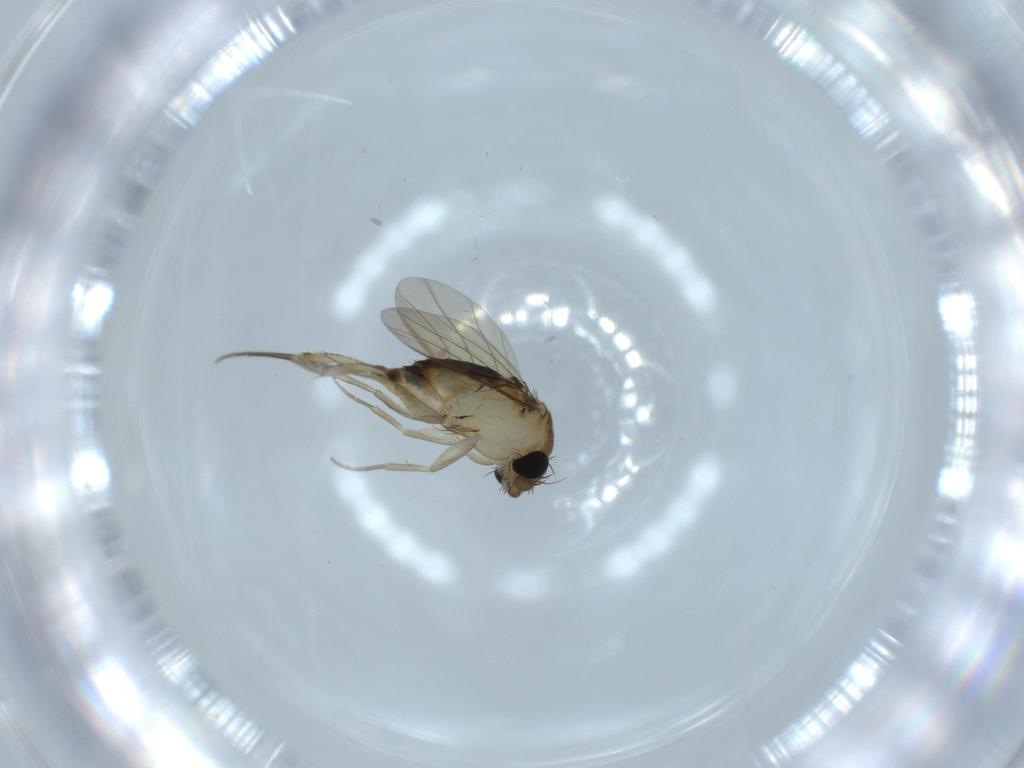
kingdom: Animalia
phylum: Arthropoda
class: Insecta
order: Diptera
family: Phoridae
